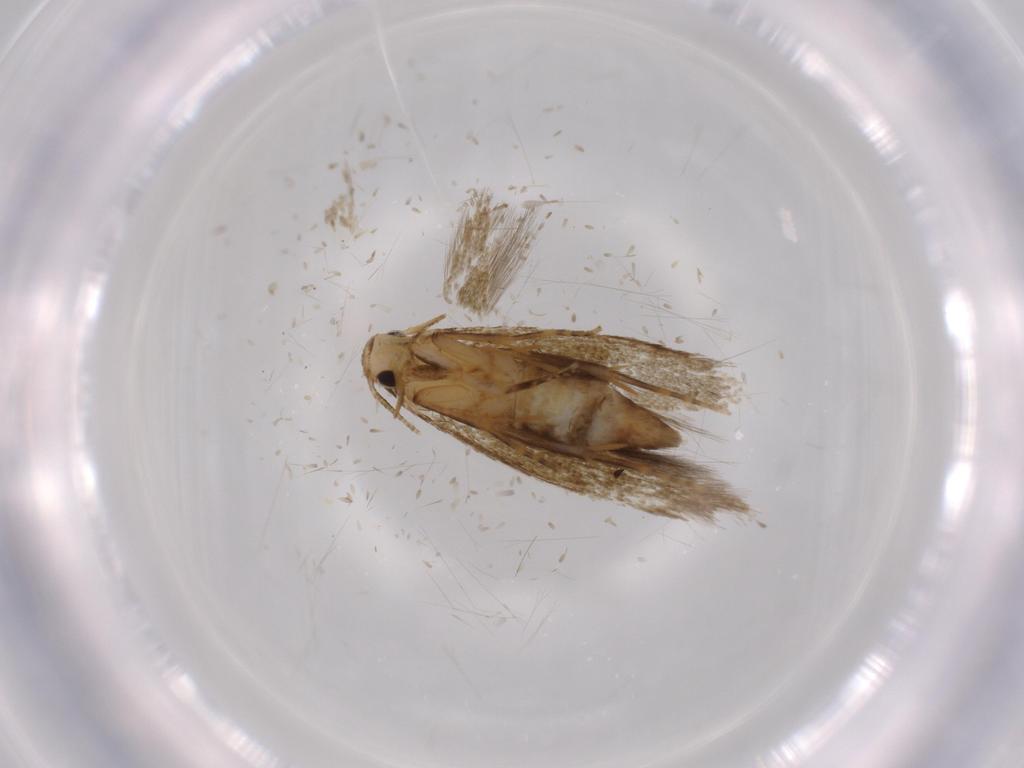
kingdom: Animalia
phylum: Arthropoda
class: Insecta
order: Lepidoptera
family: Tineidae
